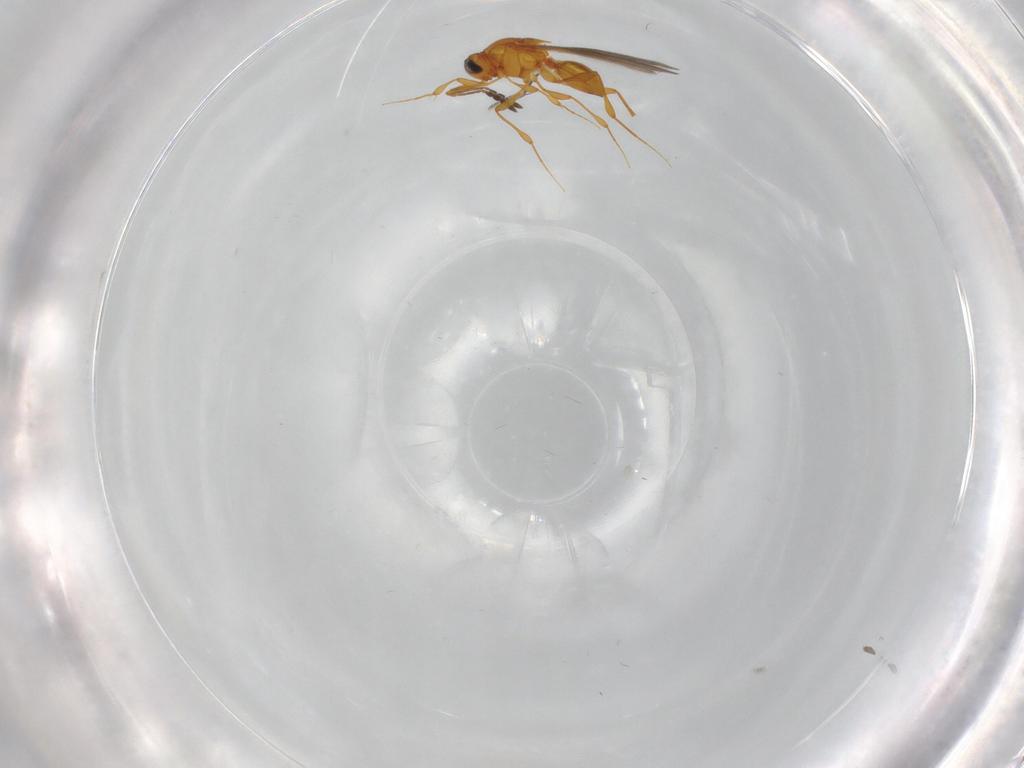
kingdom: Animalia
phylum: Arthropoda
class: Insecta
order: Hymenoptera
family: Platygastridae
